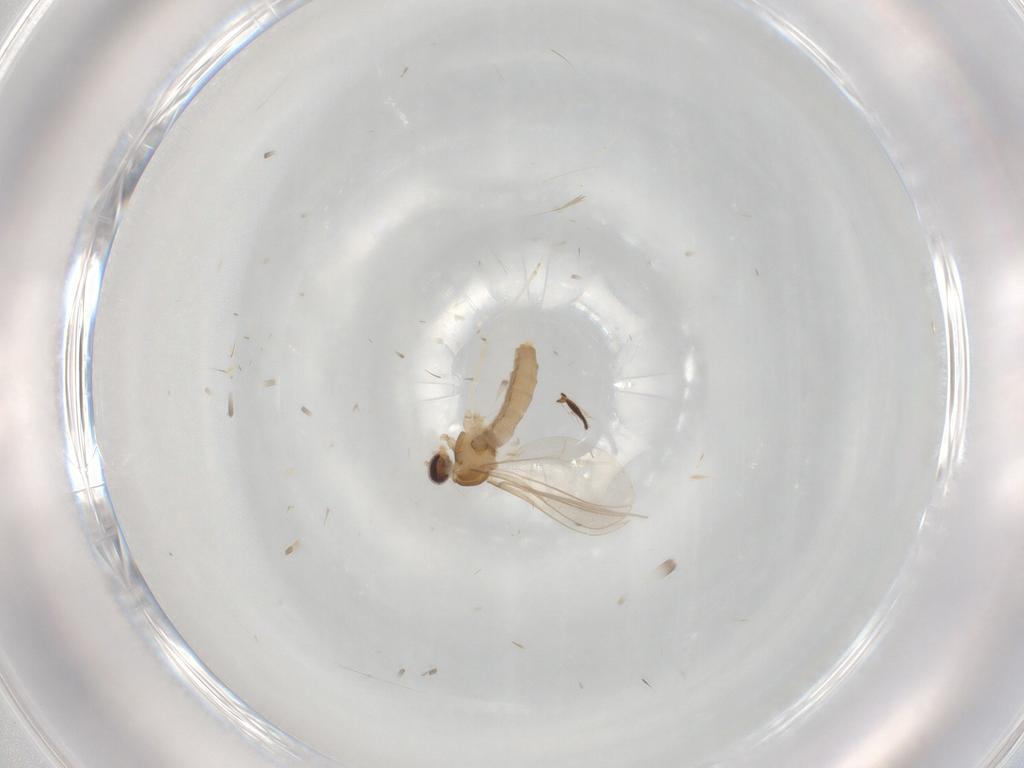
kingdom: Animalia
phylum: Arthropoda
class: Insecta
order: Diptera
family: Cecidomyiidae
